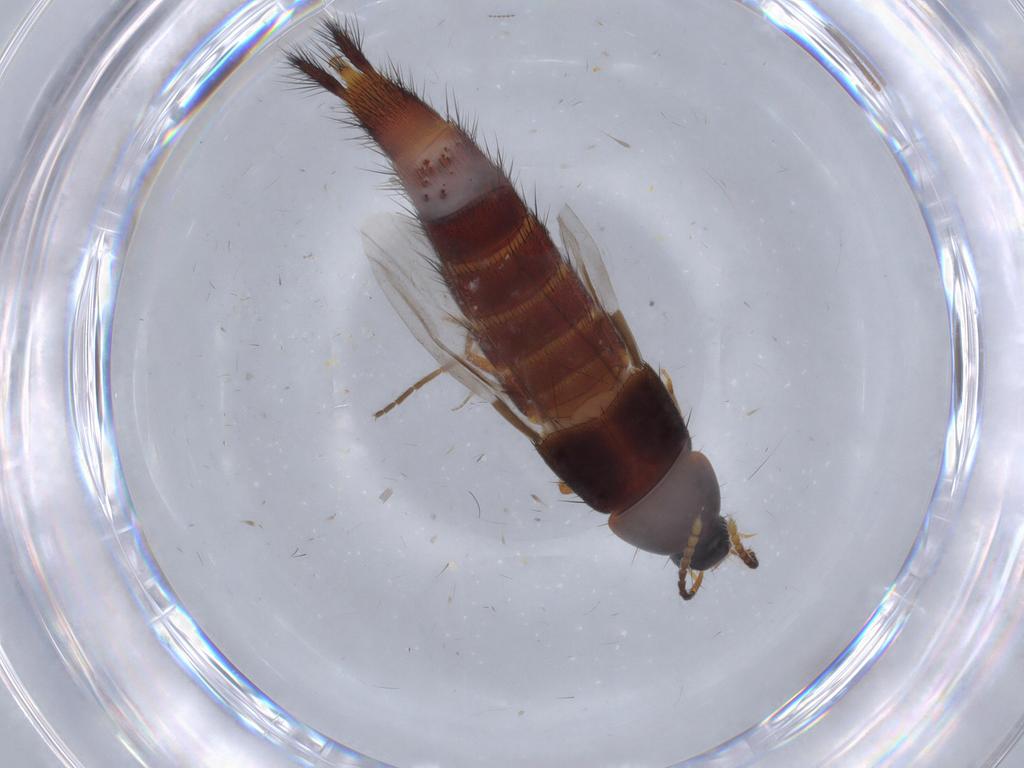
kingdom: Animalia
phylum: Arthropoda
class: Insecta
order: Coleoptera
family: Staphylinidae
